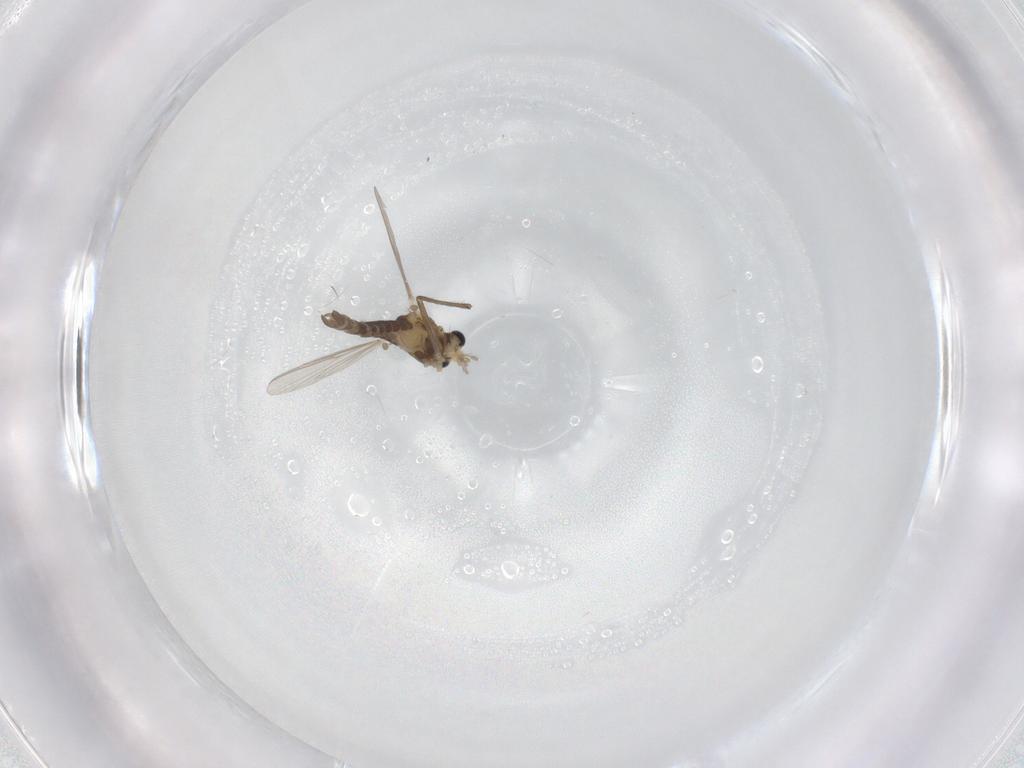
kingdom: Animalia
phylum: Arthropoda
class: Insecta
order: Diptera
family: Chironomidae
